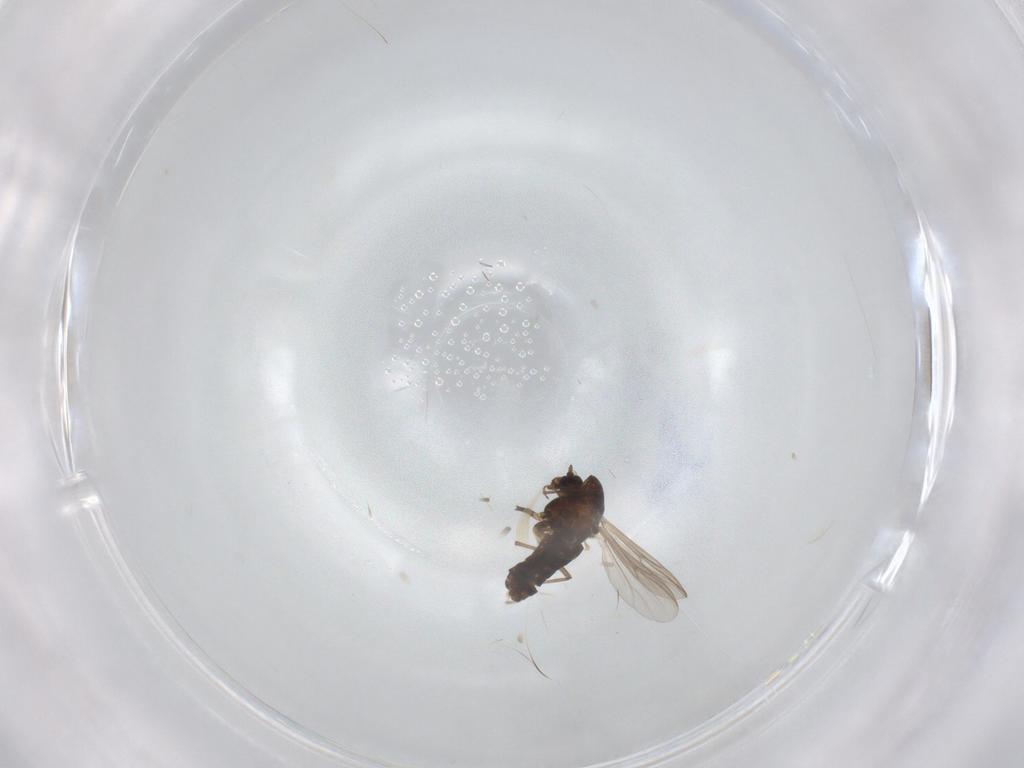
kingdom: Animalia
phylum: Arthropoda
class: Insecta
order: Diptera
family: Chironomidae
